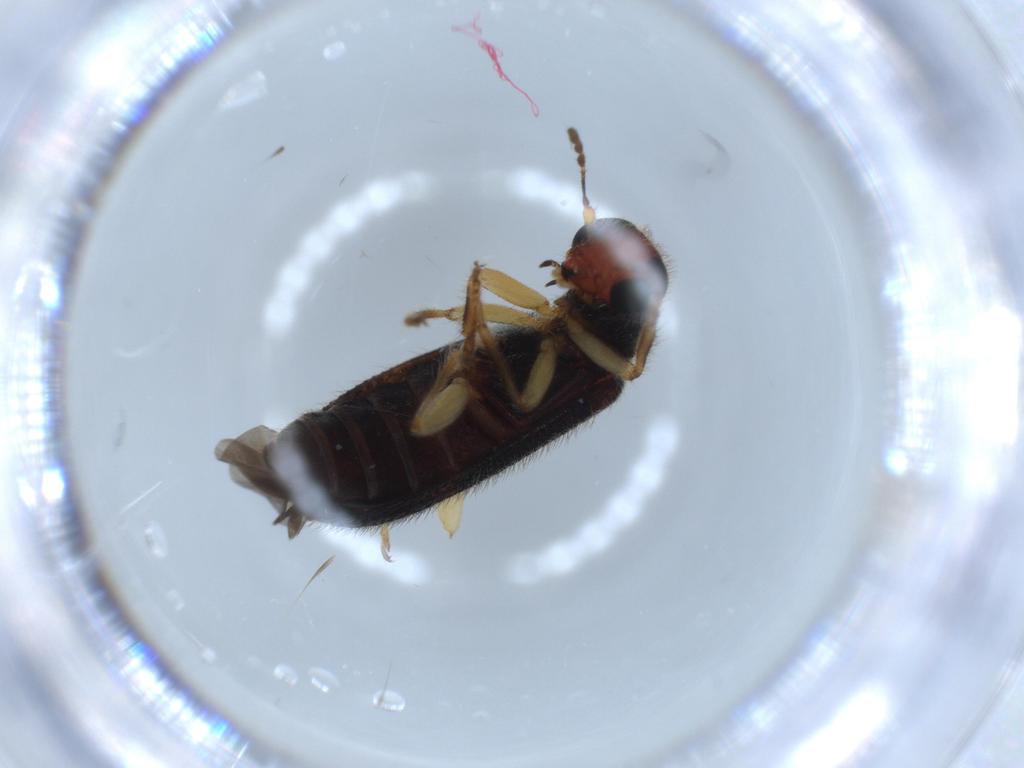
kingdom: Animalia
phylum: Arthropoda
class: Insecta
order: Coleoptera
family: Cleridae
